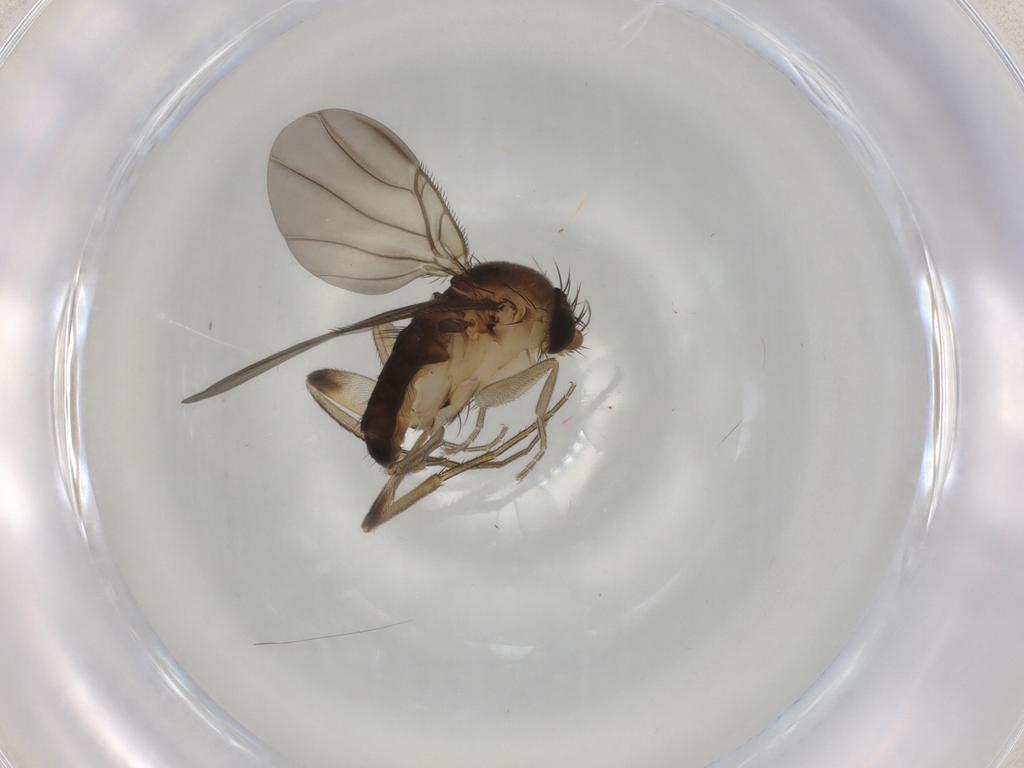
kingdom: Animalia
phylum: Arthropoda
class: Insecta
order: Diptera
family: Phoridae
